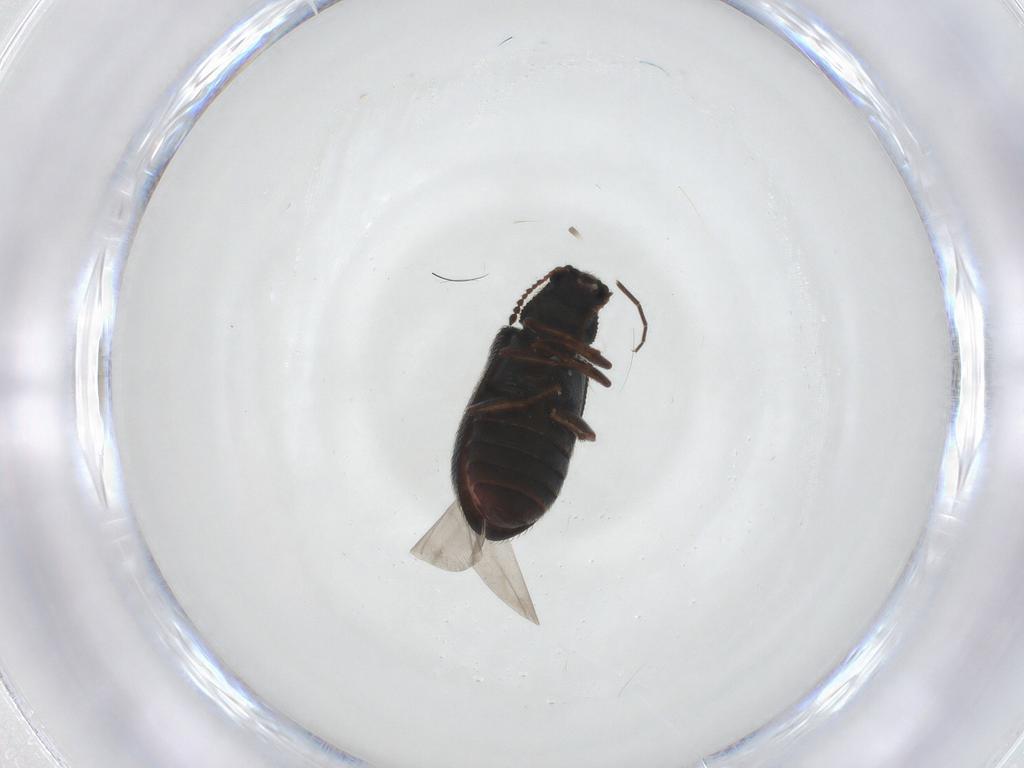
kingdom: Animalia
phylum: Arthropoda
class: Insecta
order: Coleoptera
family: Melyridae
